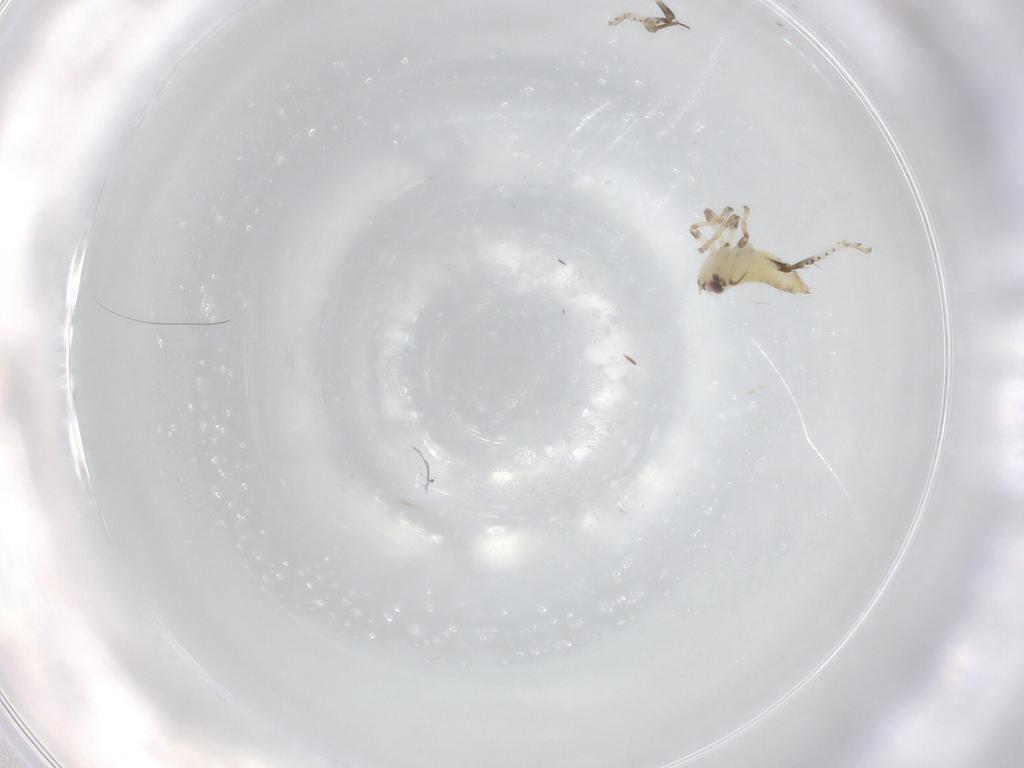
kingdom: Animalia
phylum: Arthropoda
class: Insecta
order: Hemiptera
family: Cicadellidae
